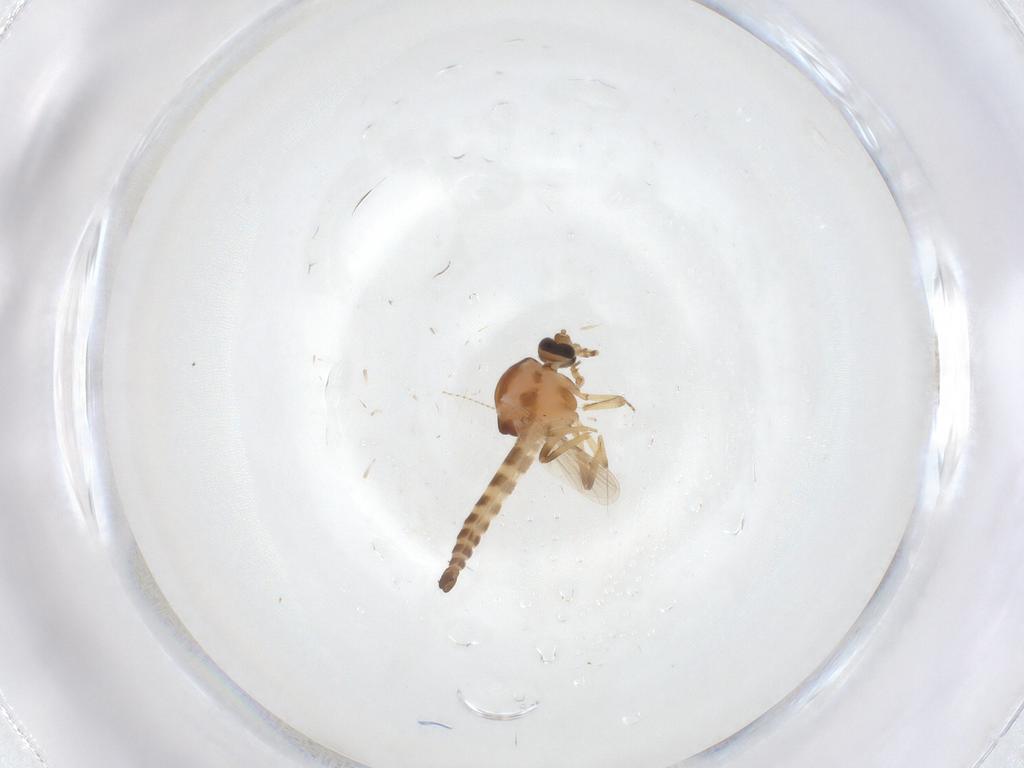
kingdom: Animalia
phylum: Arthropoda
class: Insecta
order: Diptera
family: Ceratopogonidae
